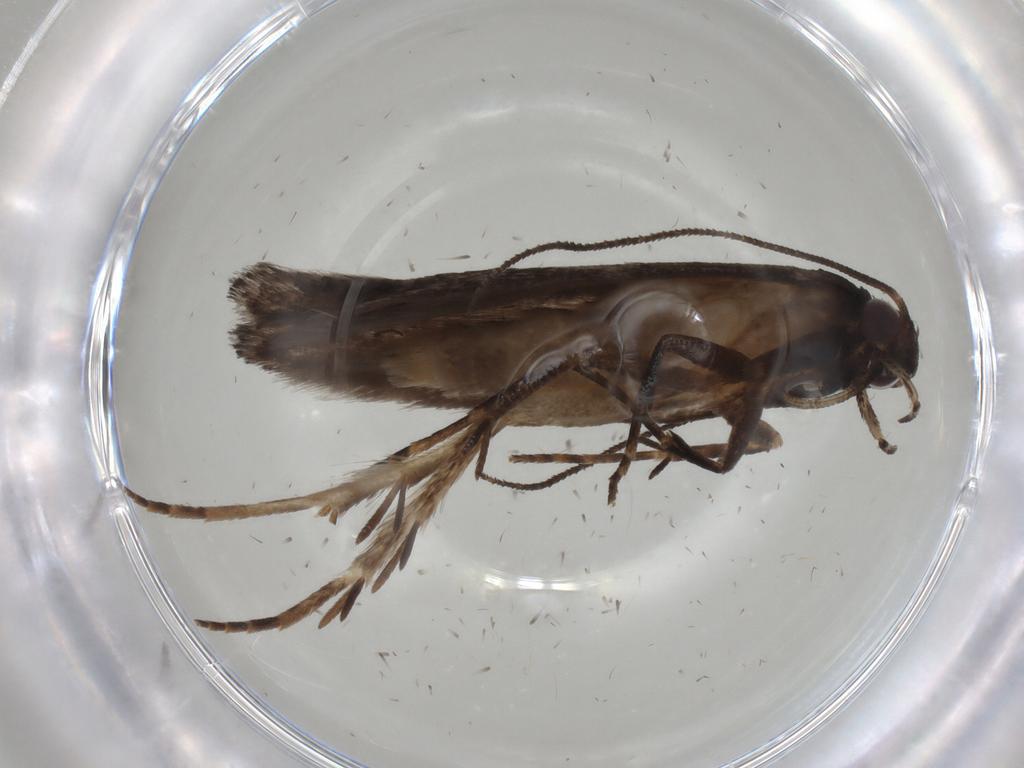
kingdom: Animalia
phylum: Arthropoda
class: Insecta
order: Lepidoptera
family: Gelechiidae
